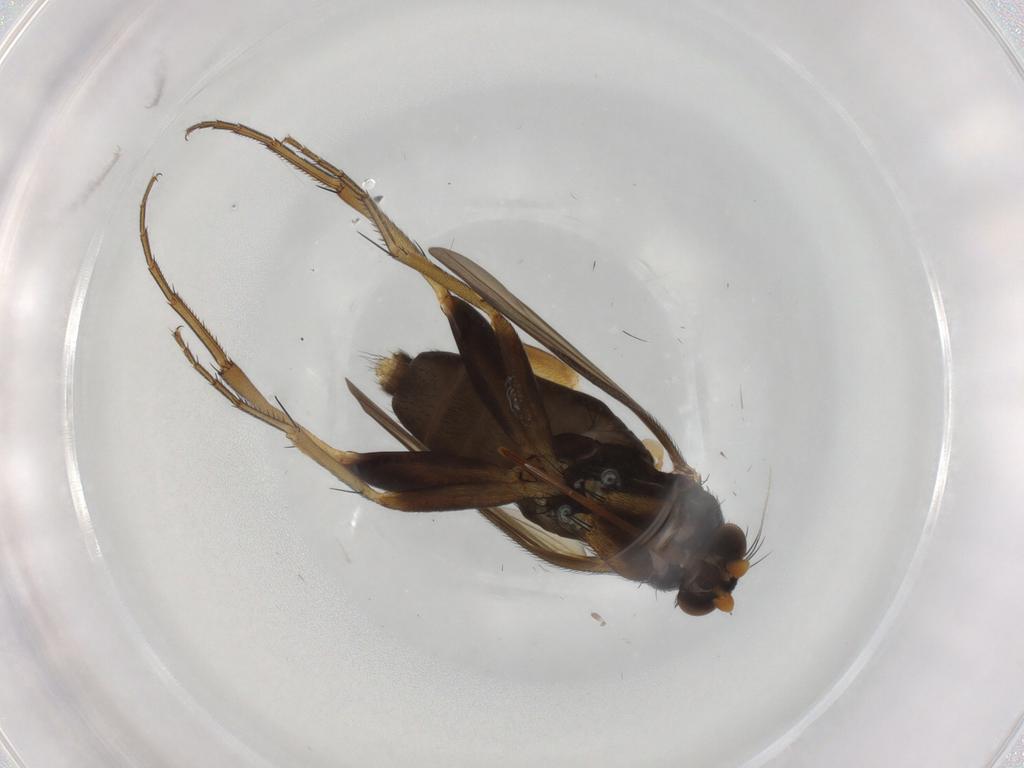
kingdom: Animalia
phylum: Arthropoda
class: Insecta
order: Diptera
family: Phoridae
